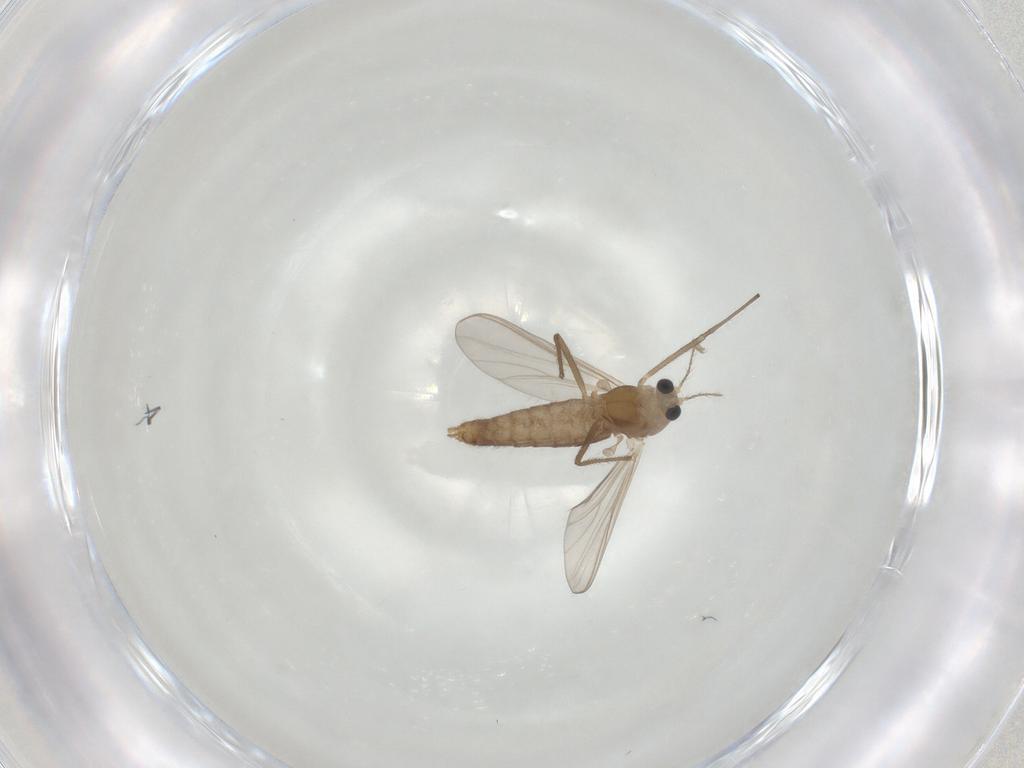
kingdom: Animalia
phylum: Arthropoda
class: Insecta
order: Diptera
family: Chironomidae
